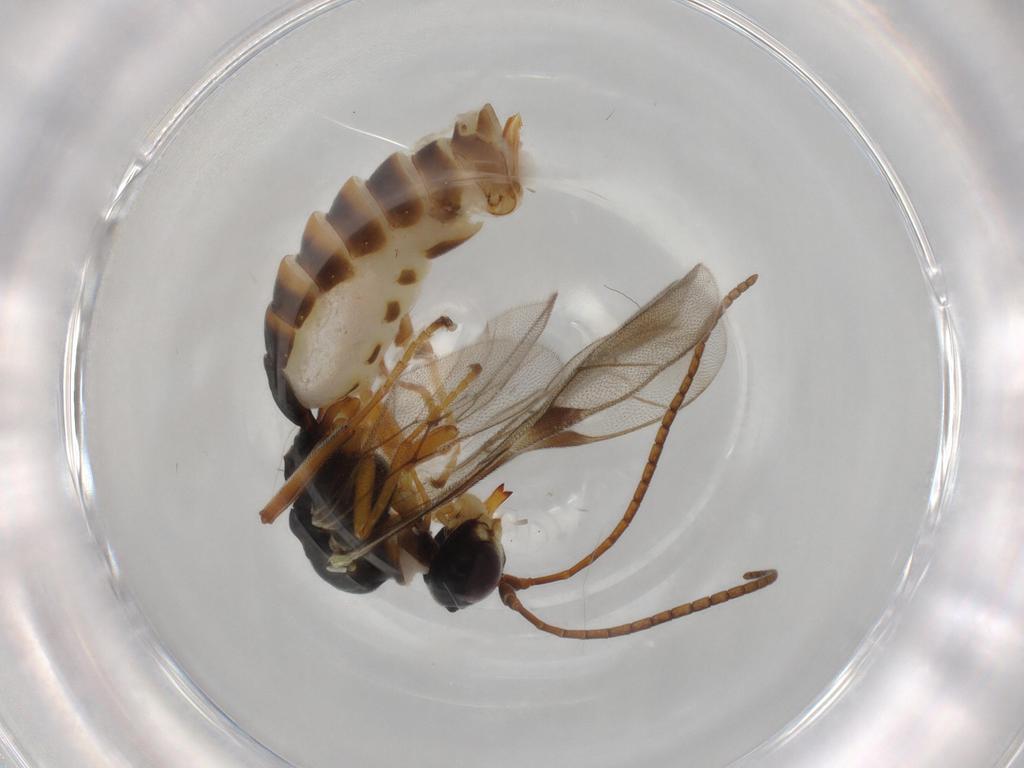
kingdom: Animalia
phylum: Arthropoda
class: Insecta
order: Hymenoptera
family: Ichneumonidae
